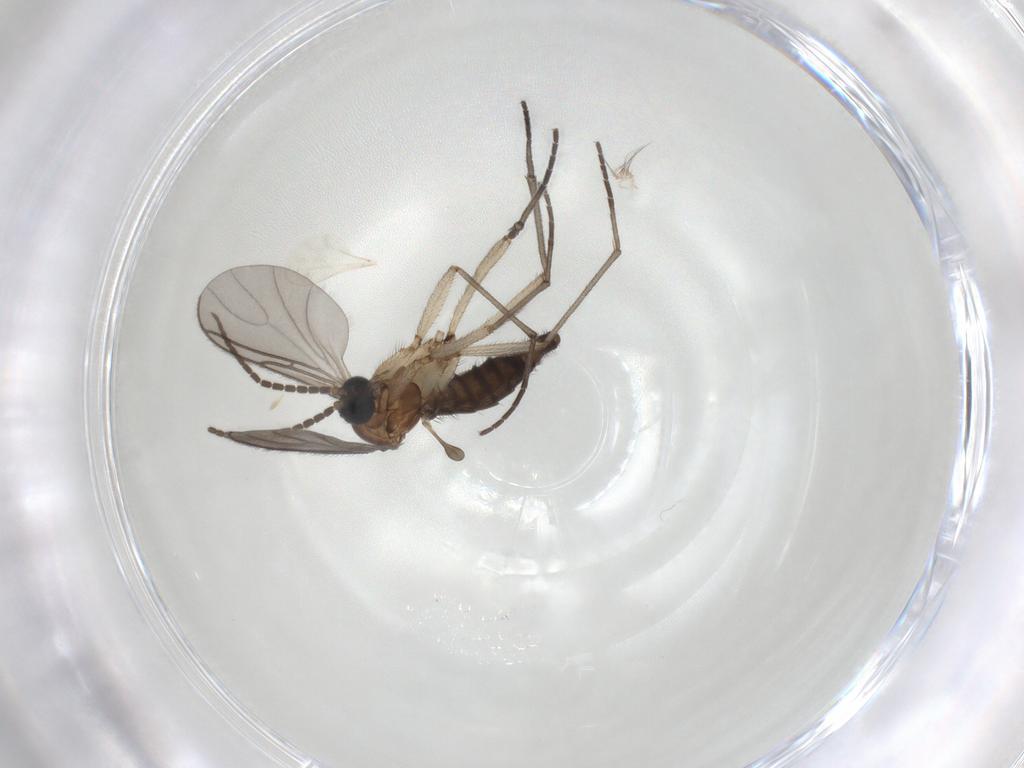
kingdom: Animalia
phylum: Arthropoda
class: Insecta
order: Diptera
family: Sciaridae
